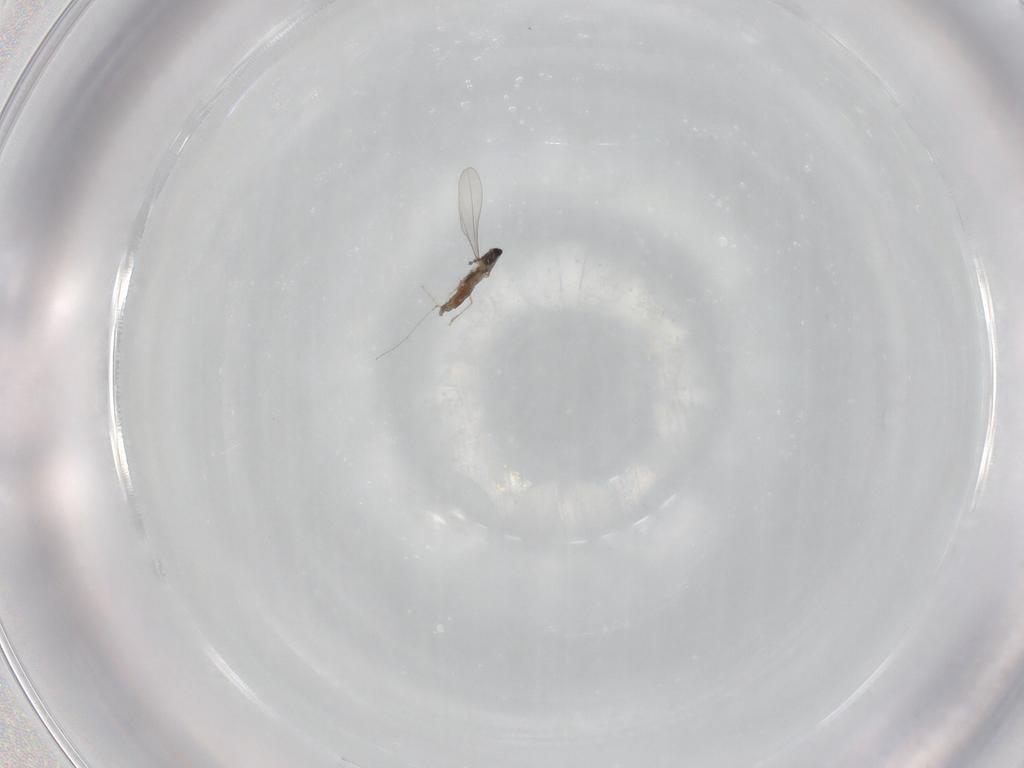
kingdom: Animalia
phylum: Arthropoda
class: Insecta
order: Diptera
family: Cecidomyiidae
